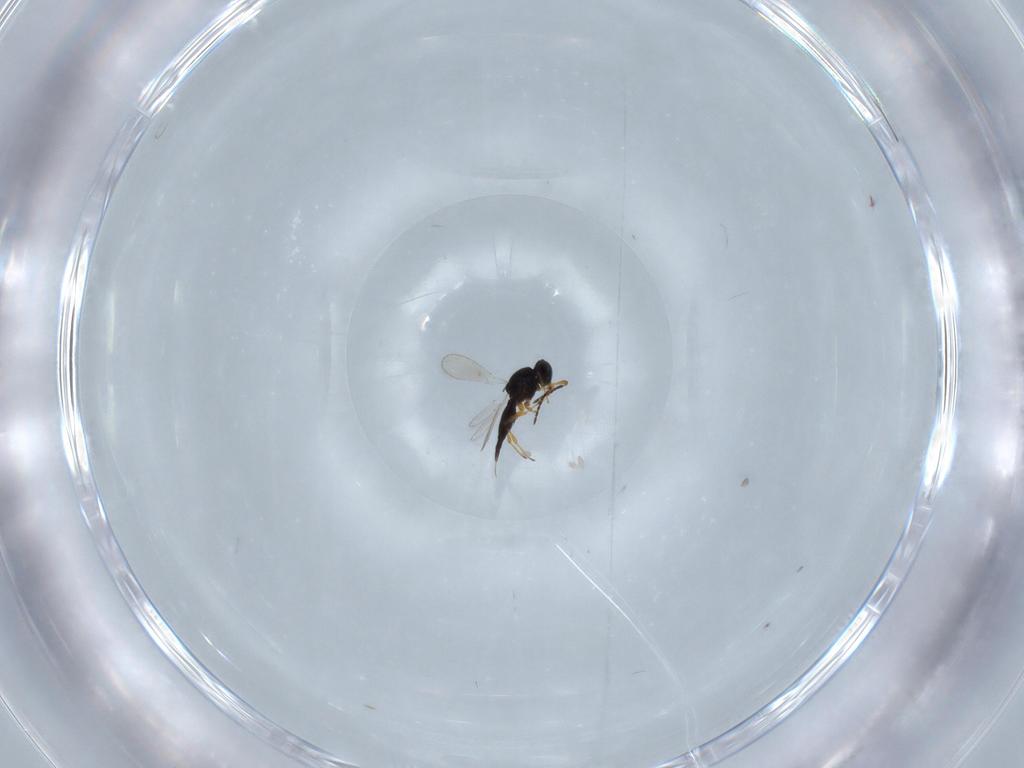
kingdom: Animalia
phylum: Arthropoda
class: Insecta
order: Hymenoptera
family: Platygastridae
